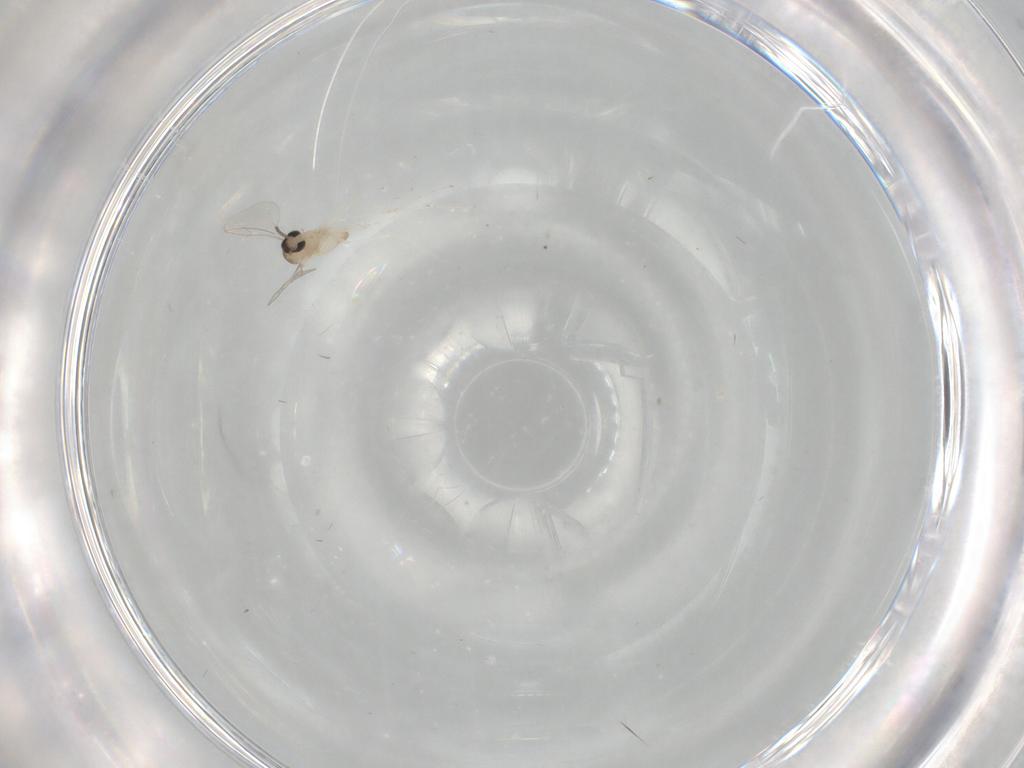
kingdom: Animalia
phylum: Arthropoda
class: Insecta
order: Diptera
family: Cecidomyiidae
